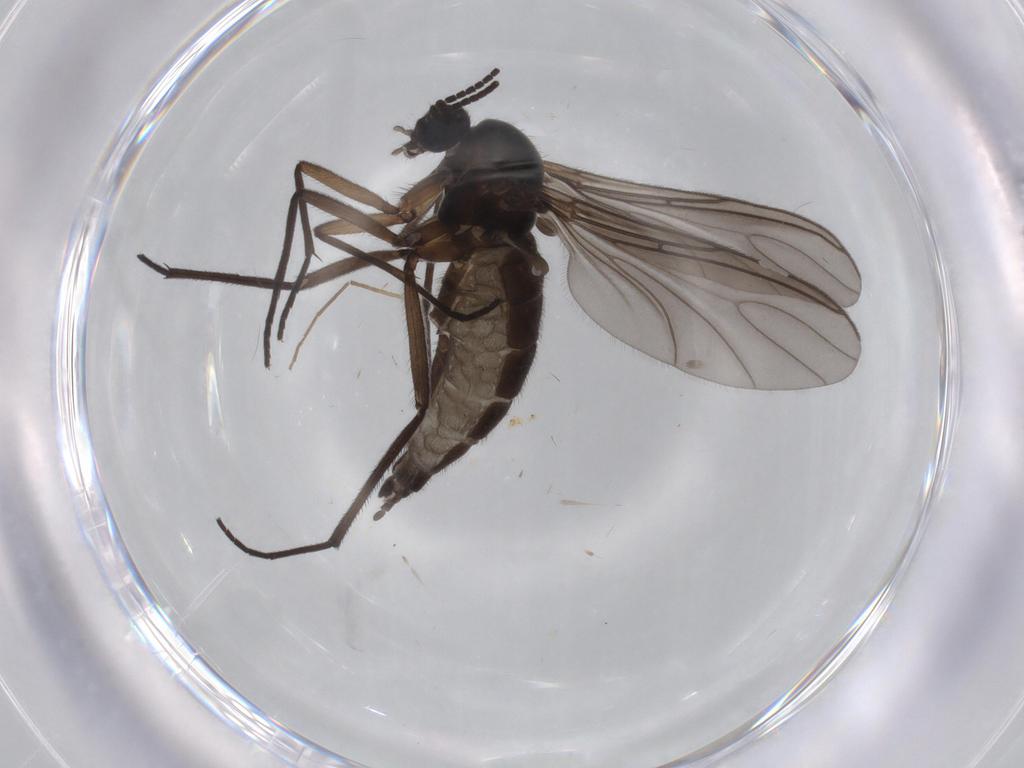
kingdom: Animalia
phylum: Arthropoda
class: Insecta
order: Diptera
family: Sciaridae
